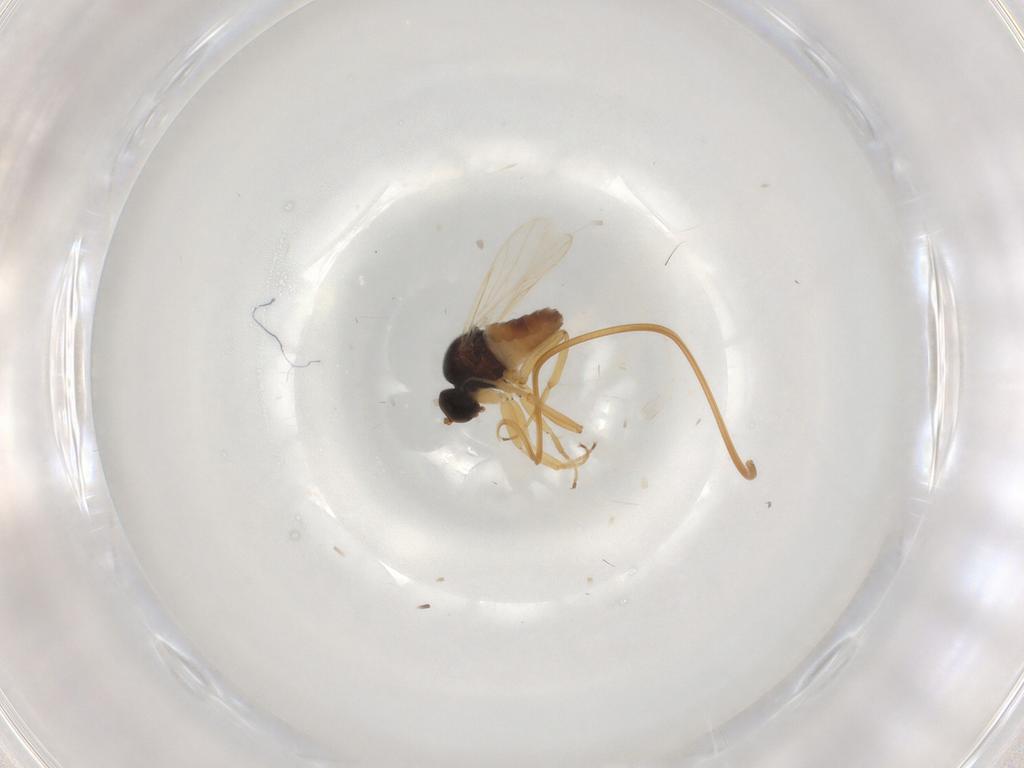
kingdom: Animalia
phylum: Arthropoda
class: Insecta
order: Diptera
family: Hybotidae
